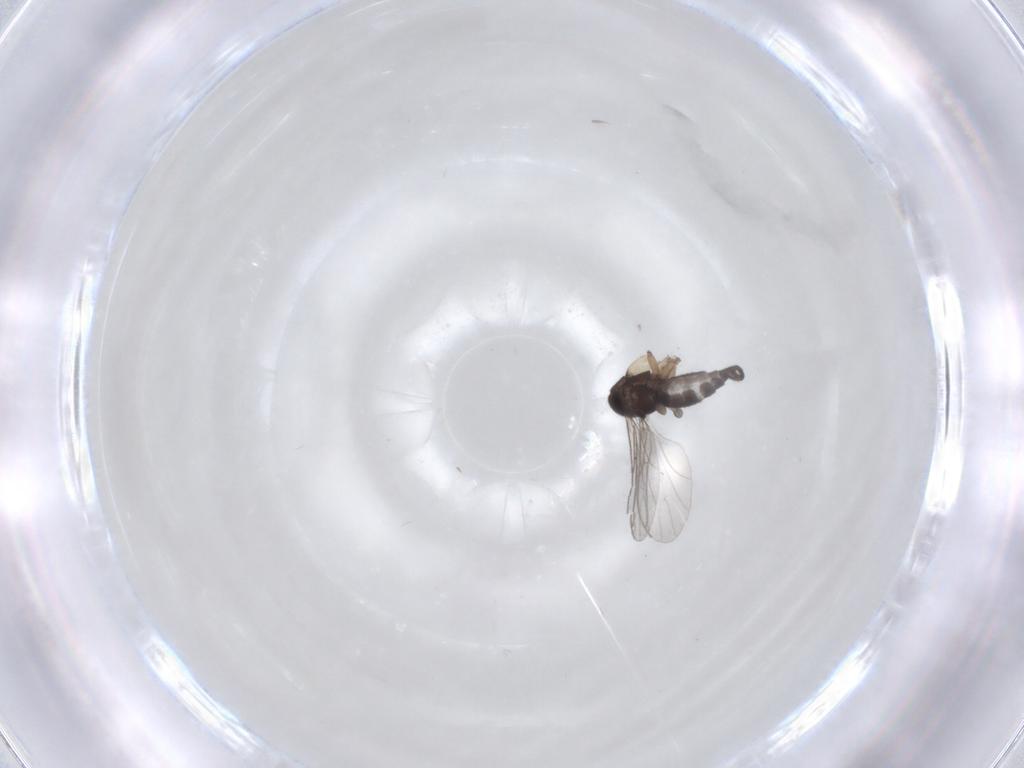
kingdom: Animalia
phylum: Arthropoda
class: Insecta
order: Diptera
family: Sciaridae
